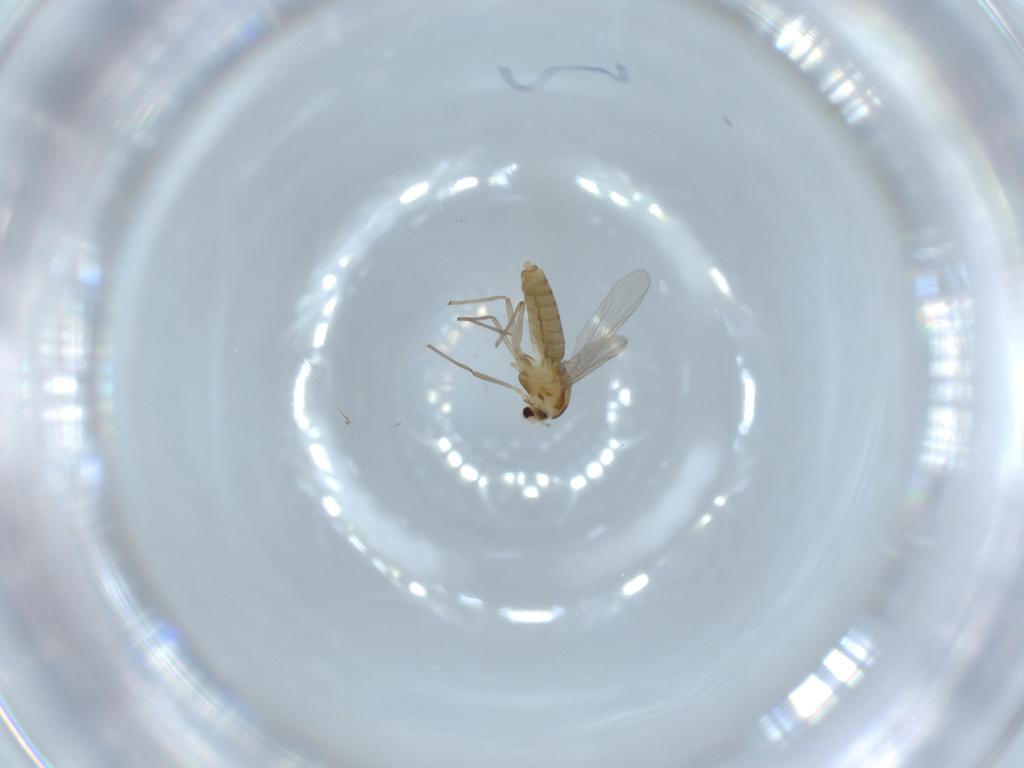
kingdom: Animalia
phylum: Arthropoda
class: Insecta
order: Diptera
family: Chironomidae
